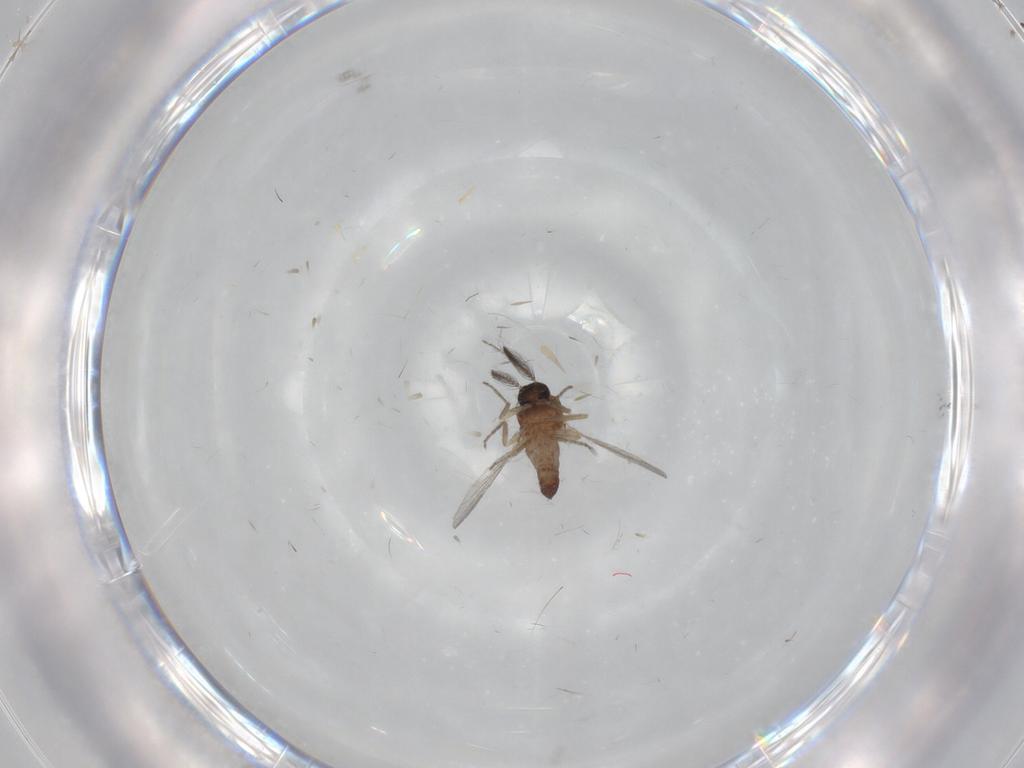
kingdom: Animalia
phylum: Arthropoda
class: Insecta
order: Diptera
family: Ceratopogonidae
